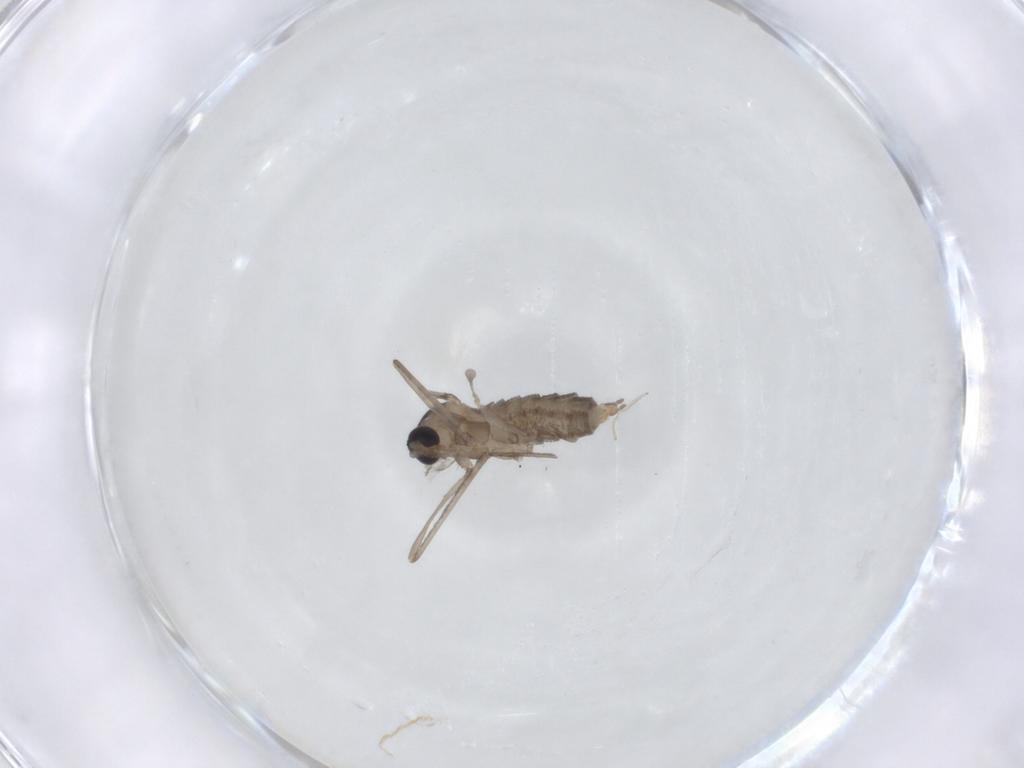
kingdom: Animalia
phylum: Arthropoda
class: Insecta
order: Diptera
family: Cecidomyiidae
